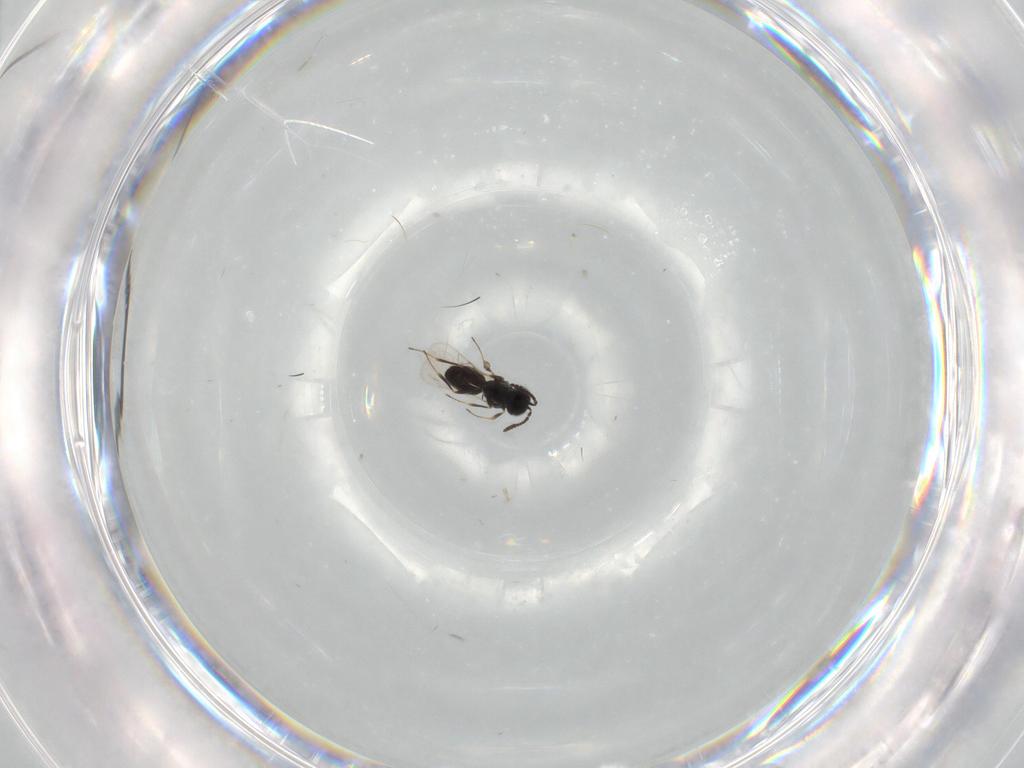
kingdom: Animalia
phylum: Arthropoda
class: Insecta
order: Hymenoptera
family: Scelionidae
